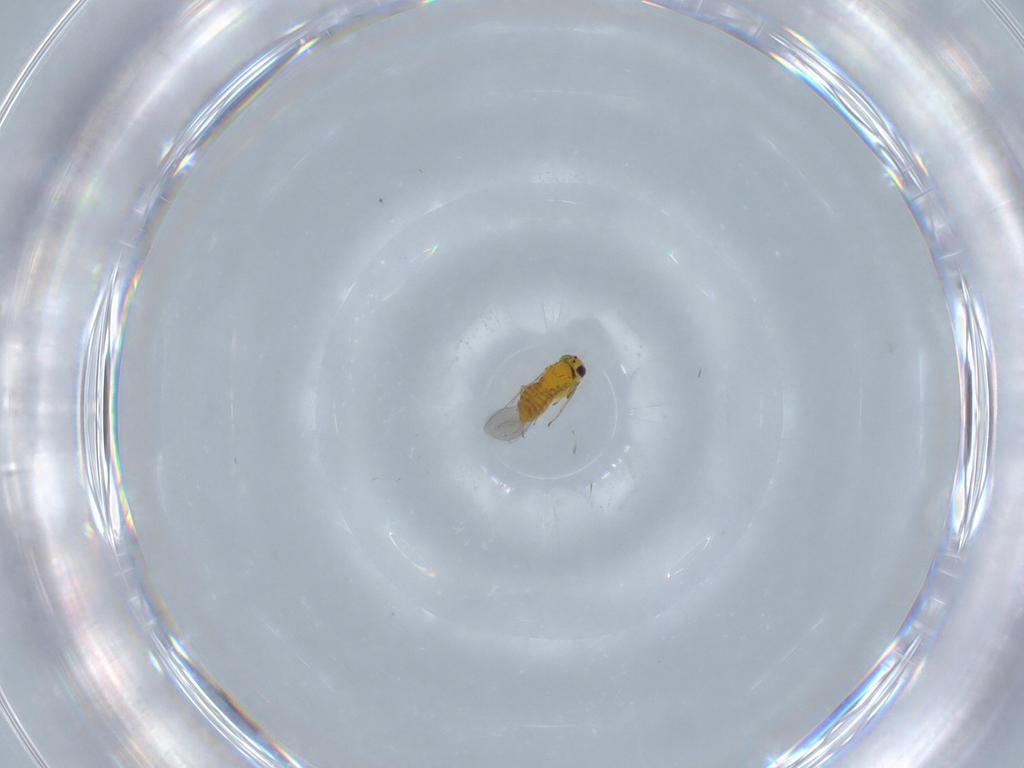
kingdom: Animalia
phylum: Arthropoda
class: Insecta
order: Hymenoptera
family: Aphelinidae
